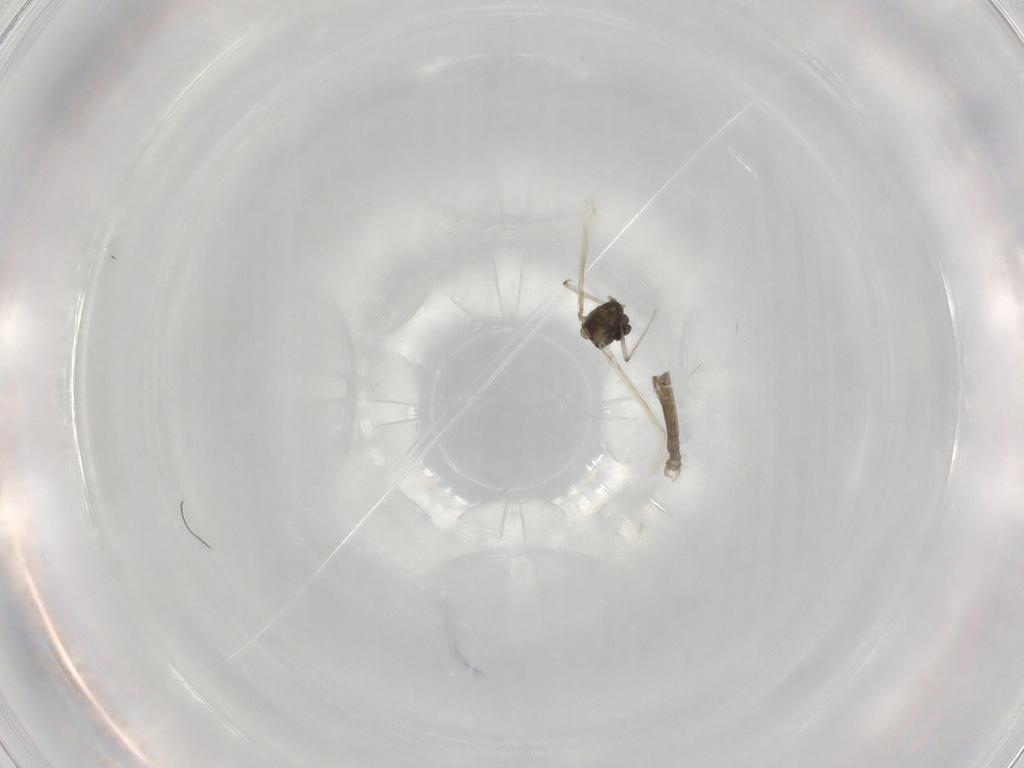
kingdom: Animalia
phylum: Arthropoda
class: Insecta
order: Diptera
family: Chironomidae
